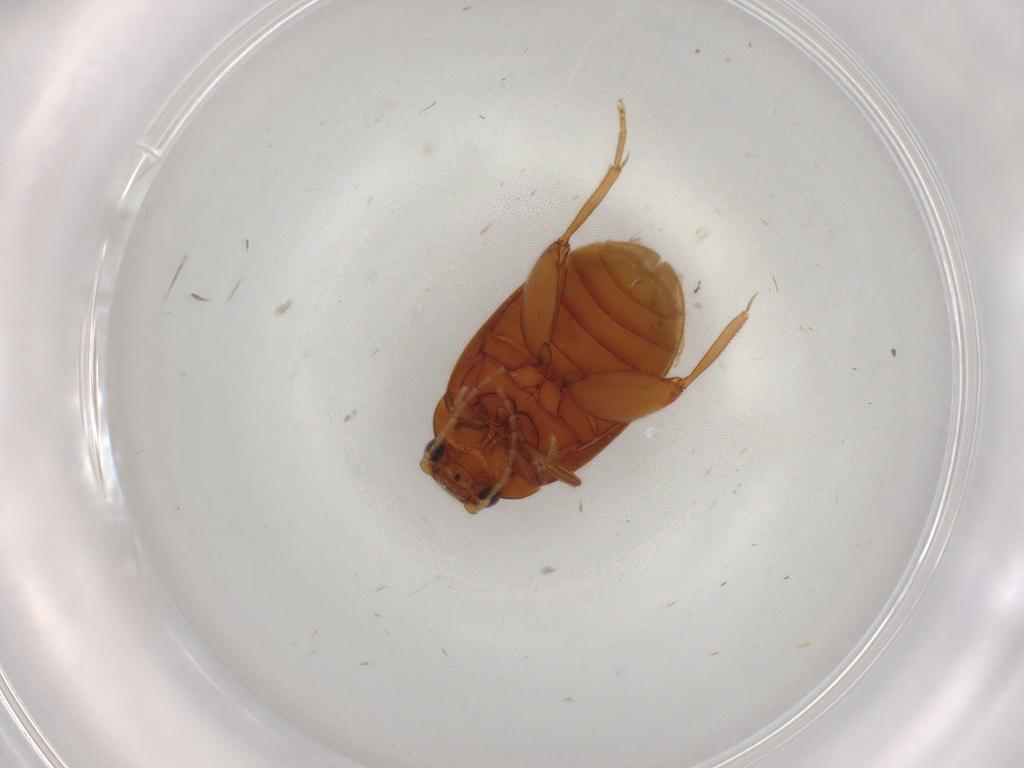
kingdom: Animalia
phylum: Arthropoda
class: Insecta
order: Coleoptera
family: Scirtidae
